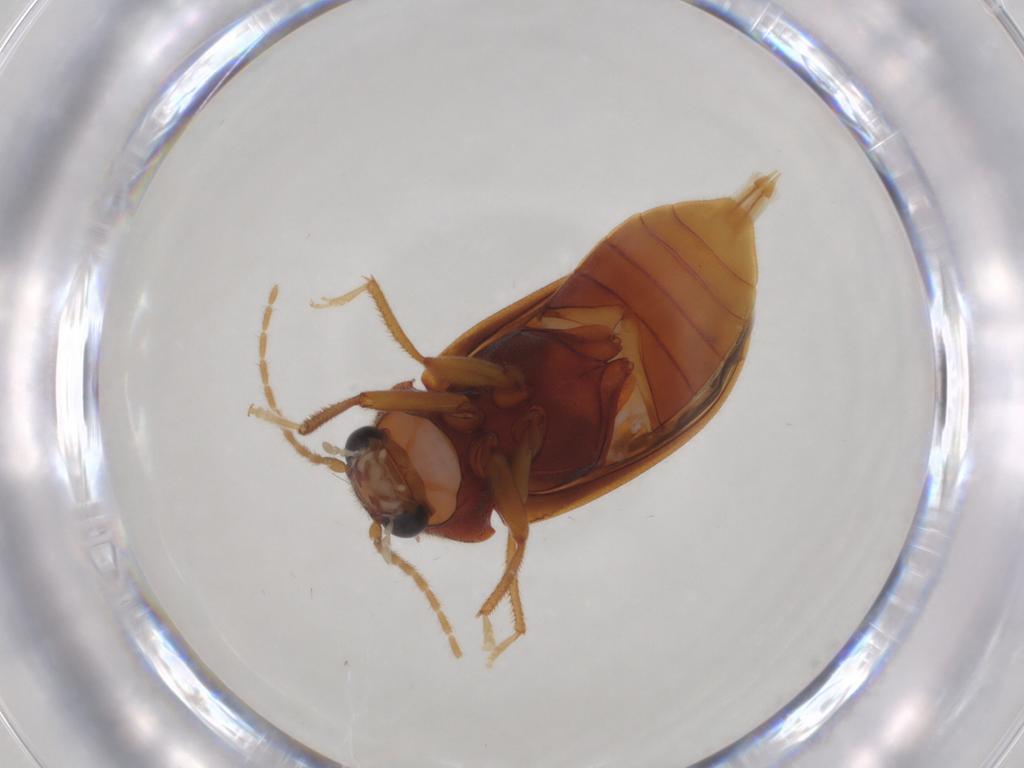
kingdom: Animalia
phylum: Arthropoda
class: Insecta
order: Coleoptera
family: Ptilodactylidae
